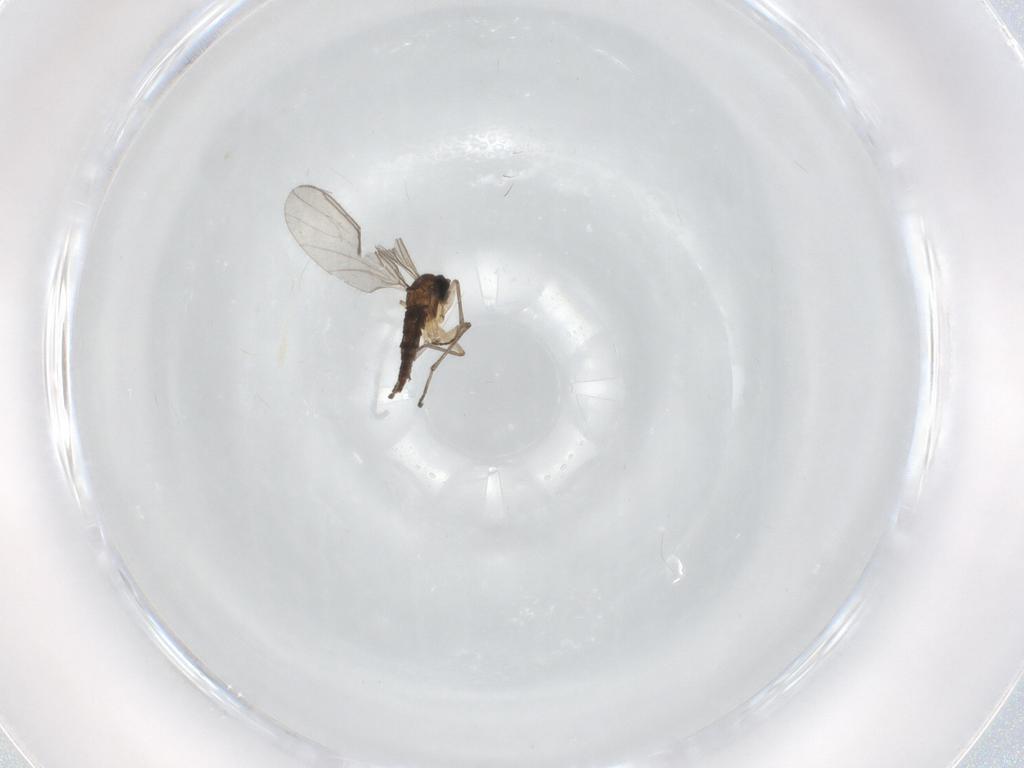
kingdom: Animalia
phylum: Arthropoda
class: Insecta
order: Diptera
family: Sciaridae
